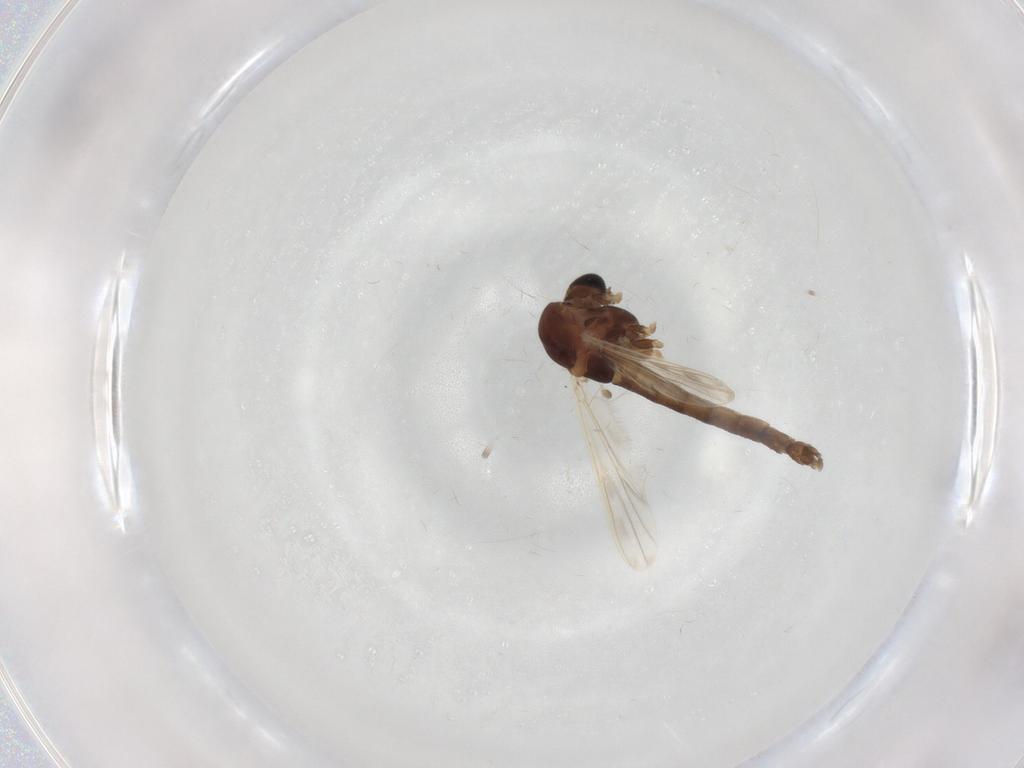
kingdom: Animalia
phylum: Arthropoda
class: Insecta
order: Diptera
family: Chironomidae
